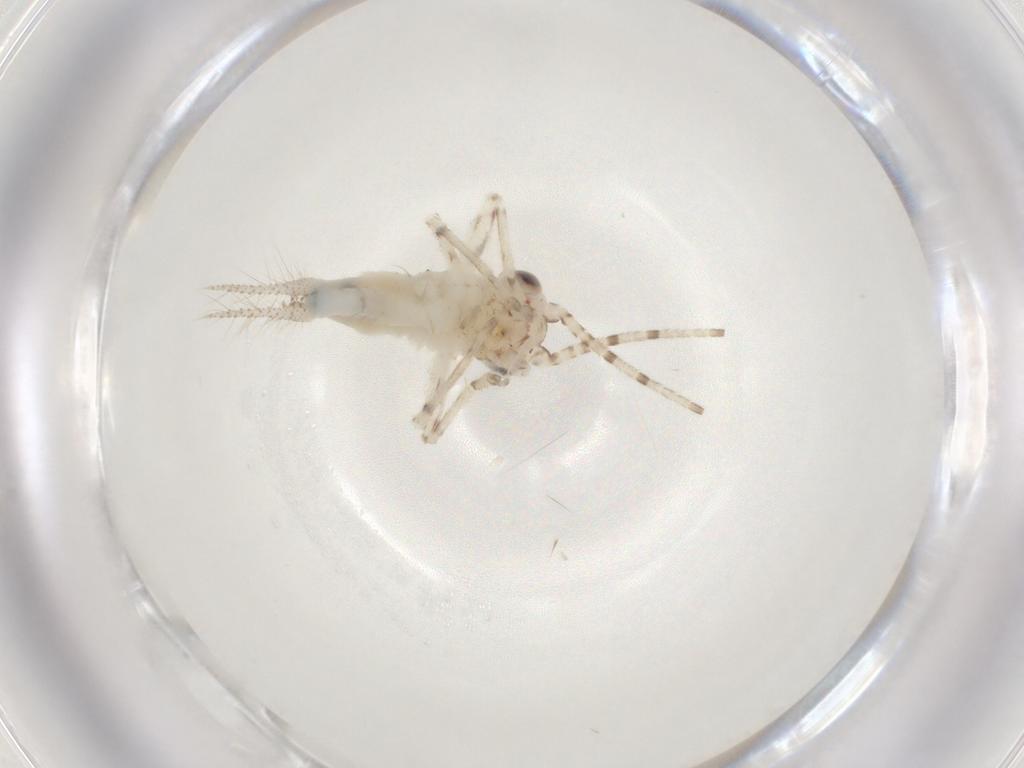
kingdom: Animalia
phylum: Arthropoda
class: Insecta
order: Orthoptera
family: Trigonidiidae
